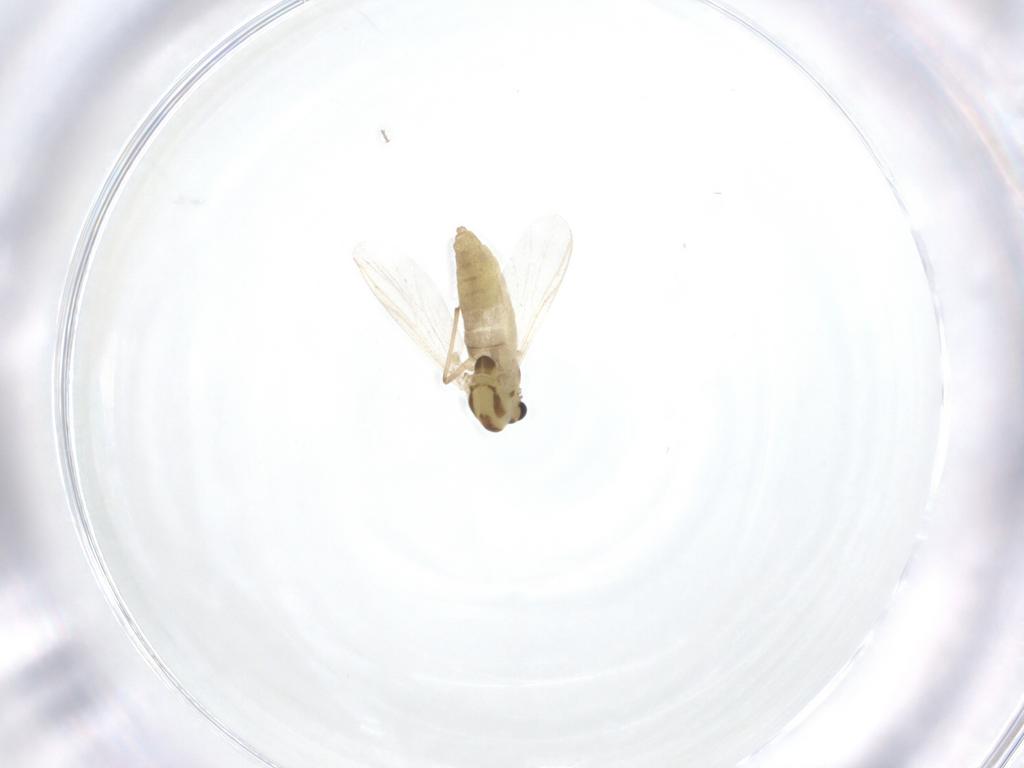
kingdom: Animalia
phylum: Arthropoda
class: Insecta
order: Diptera
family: Chironomidae
